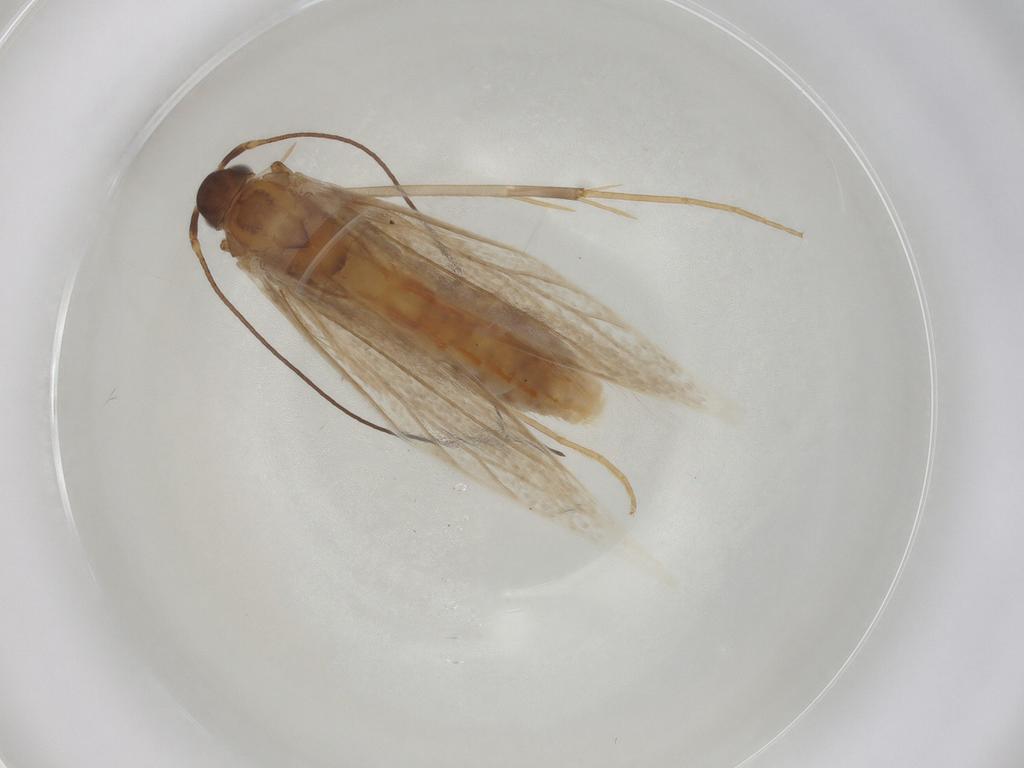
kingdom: Animalia
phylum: Arthropoda
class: Insecta
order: Lepidoptera
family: Coleophoridae
